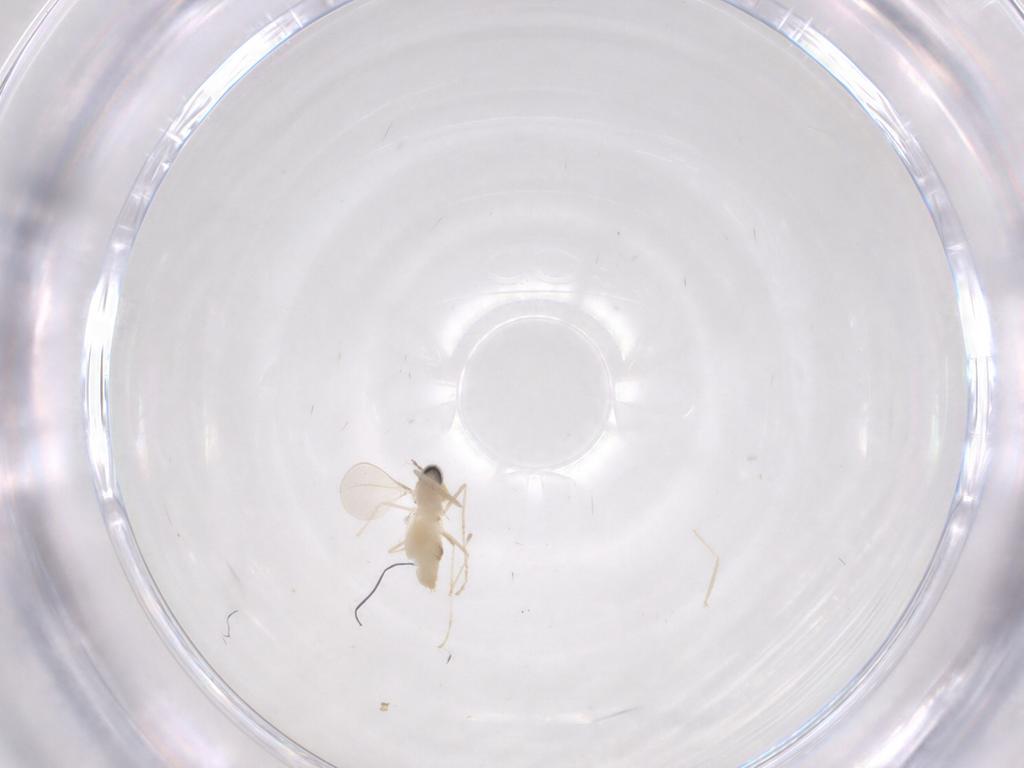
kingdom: Animalia
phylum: Arthropoda
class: Insecta
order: Diptera
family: Cecidomyiidae
